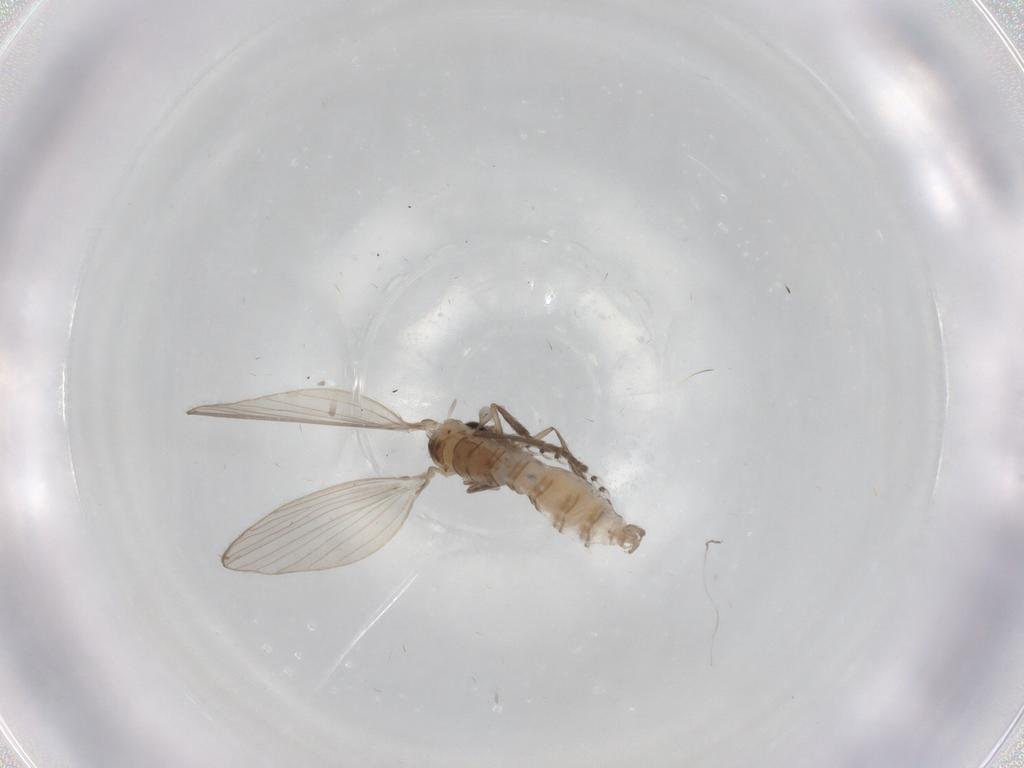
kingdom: Animalia
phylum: Arthropoda
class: Insecta
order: Diptera
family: Psychodidae
